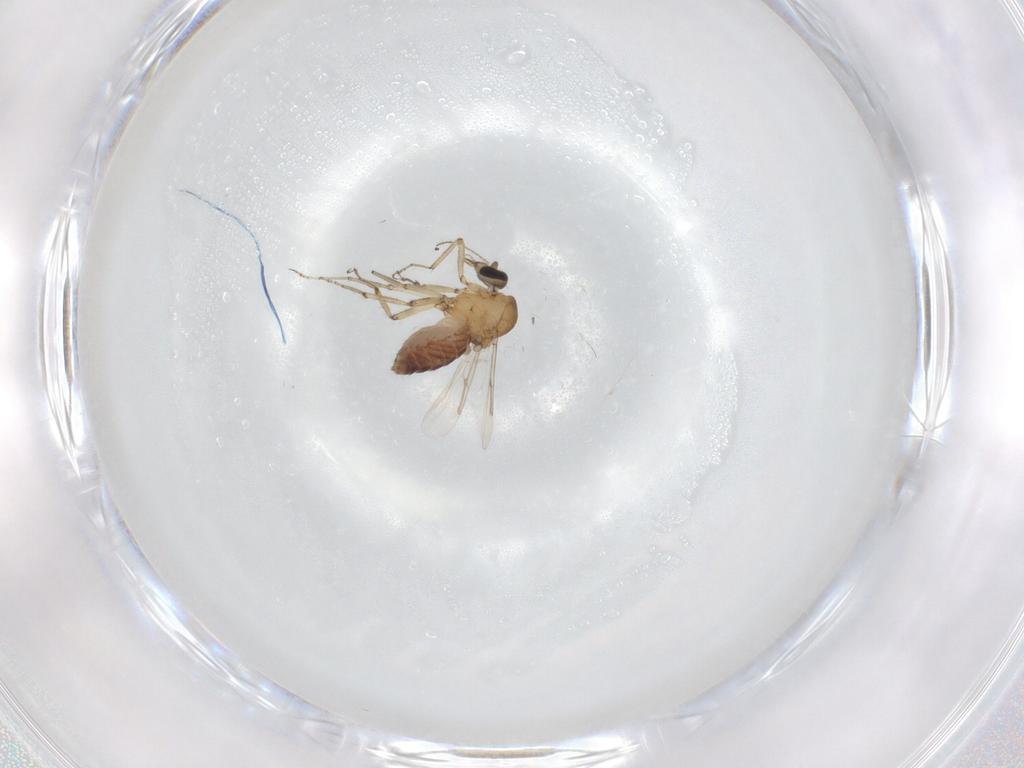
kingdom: Animalia
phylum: Arthropoda
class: Insecta
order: Diptera
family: Ceratopogonidae
